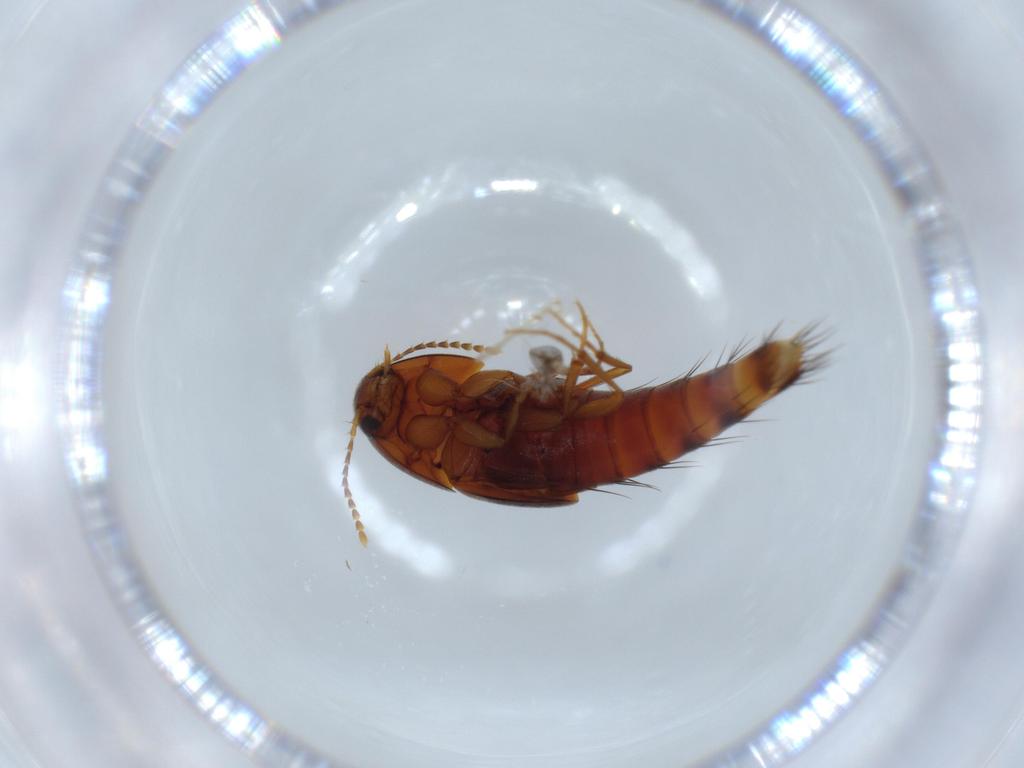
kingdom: Animalia
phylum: Arthropoda
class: Insecta
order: Coleoptera
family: Staphylinidae
